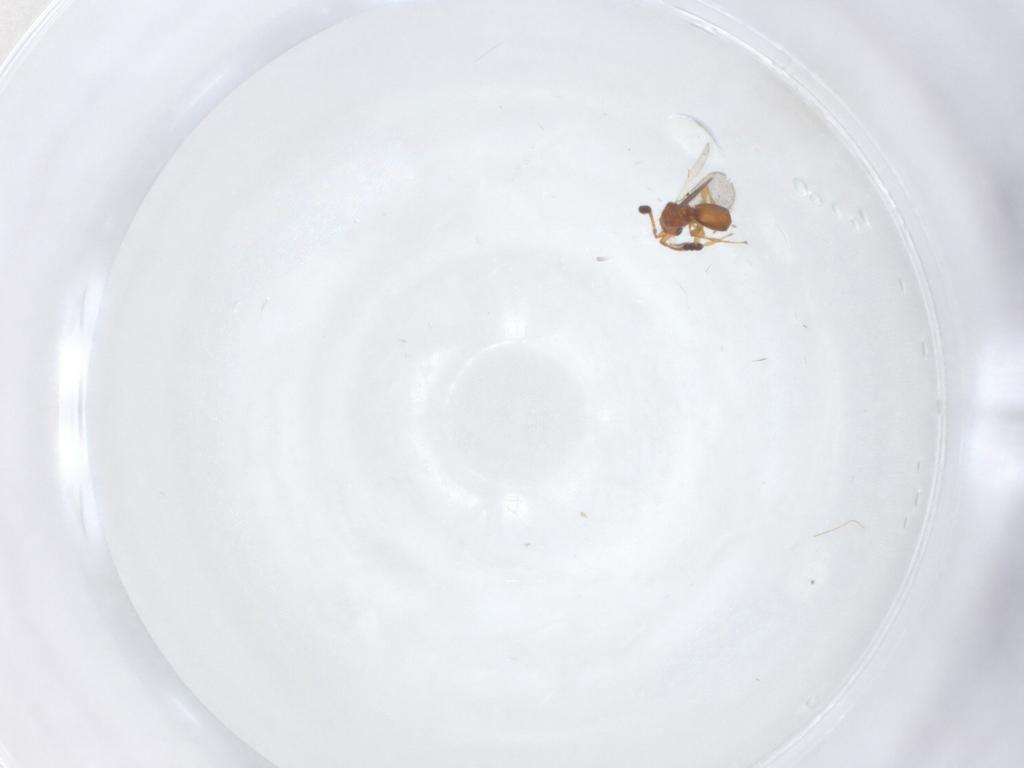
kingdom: Animalia
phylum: Arthropoda
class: Insecta
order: Hymenoptera
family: Diapriidae
